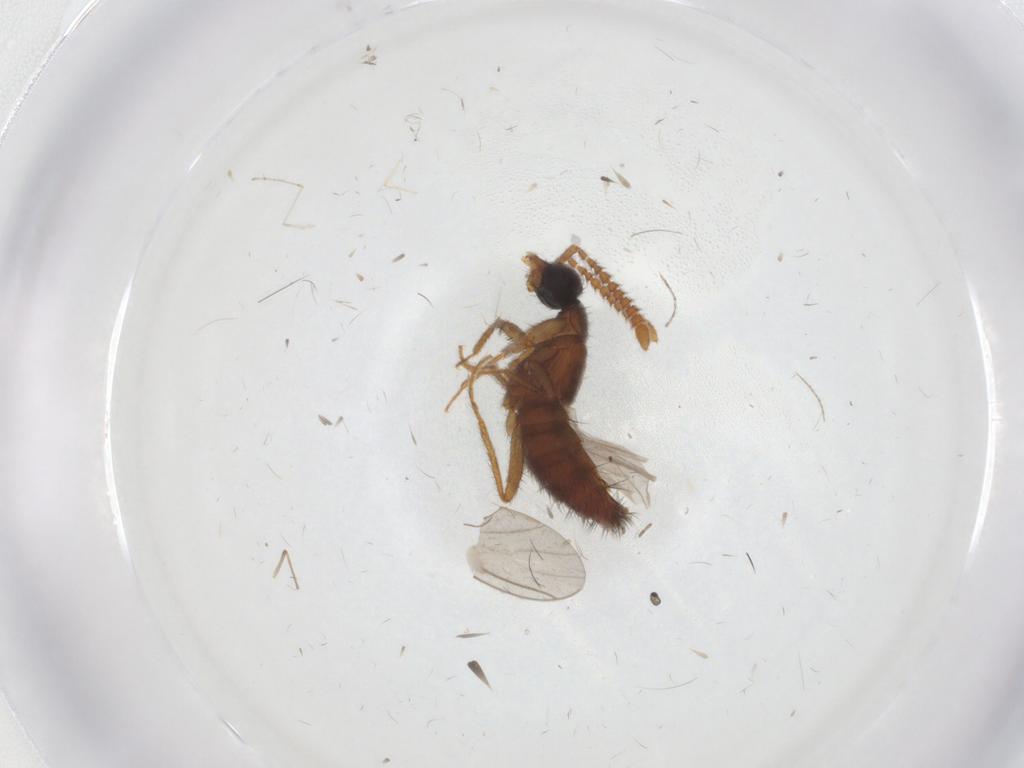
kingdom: Animalia
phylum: Arthropoda
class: Insecta
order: Coleoptera
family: Staphylinidae
